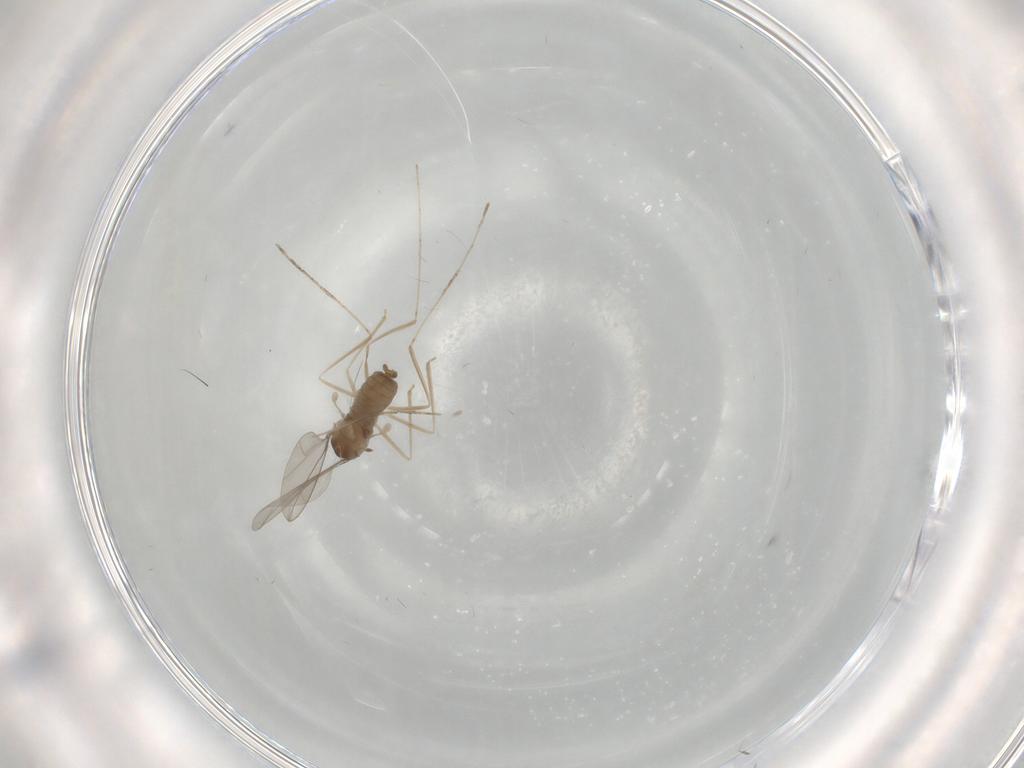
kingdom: Animalia
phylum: Arthropoda
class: Insecta
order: Diptera
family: Cecidomyiidae
